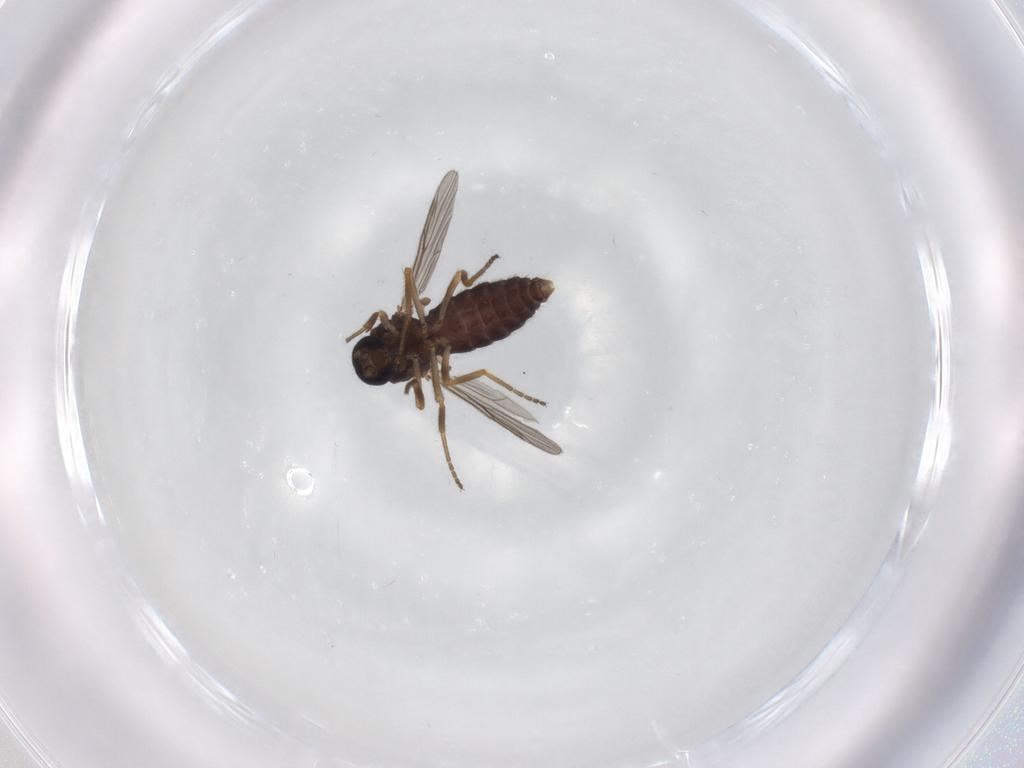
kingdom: Animalia
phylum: Arthropoda
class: Insecta
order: Diptera
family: Ceratopogonidae
